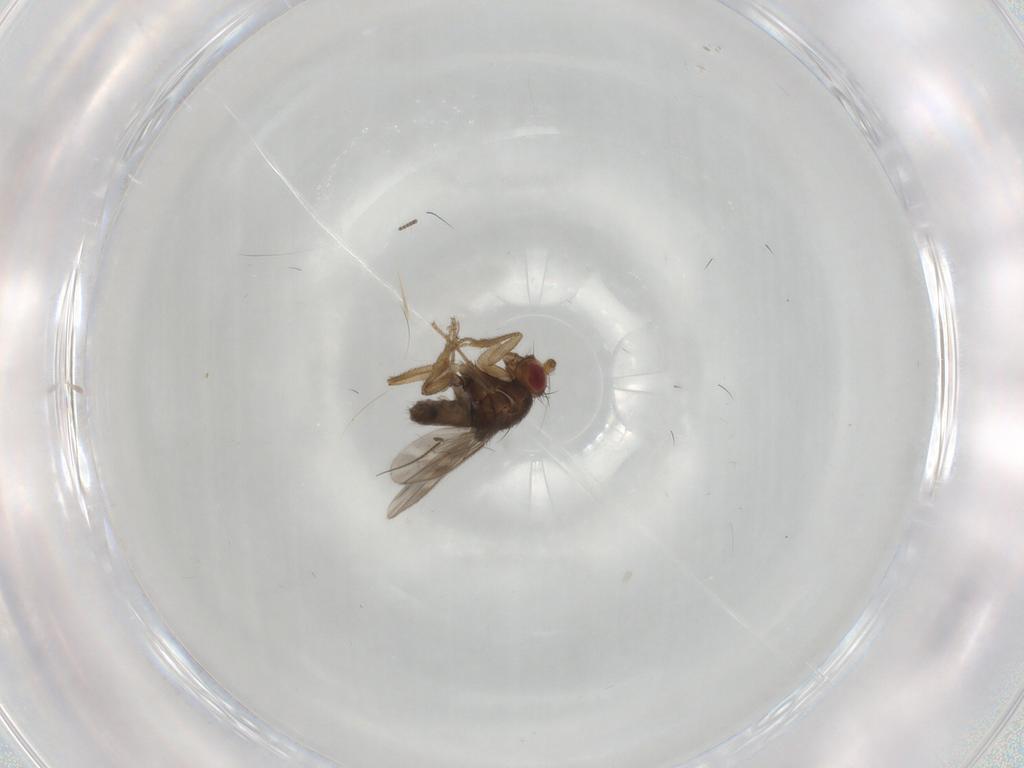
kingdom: Animalia
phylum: Arthropoda
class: Insecta
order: Diptera
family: Sphaeroceridae
